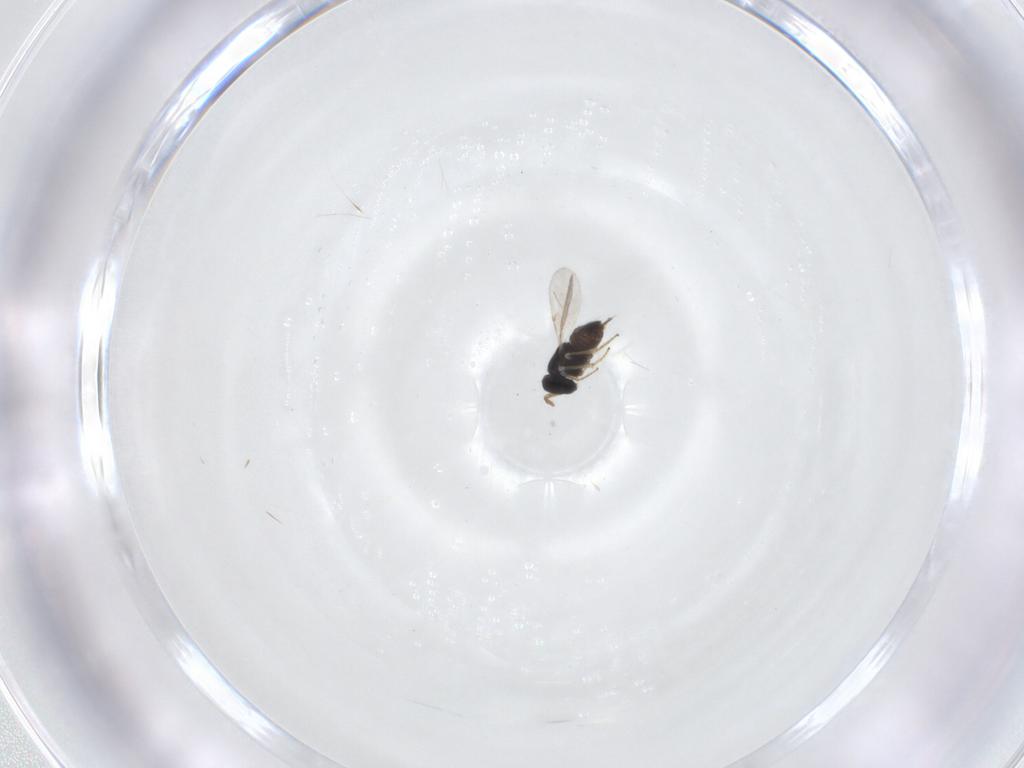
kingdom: Animalia
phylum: Arthropoda
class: Insecta
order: Hymenoptera
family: Encyrtidae
